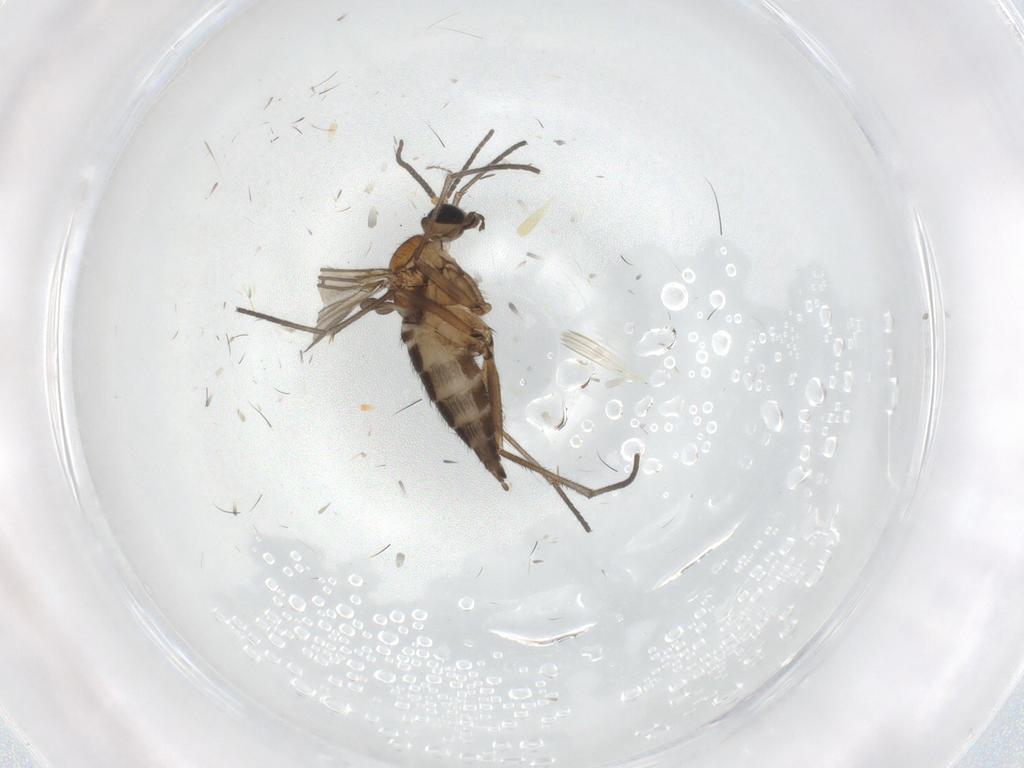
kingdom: Animalia
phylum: Arthropoda
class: Insecta
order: Diptera
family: Sciaridae
